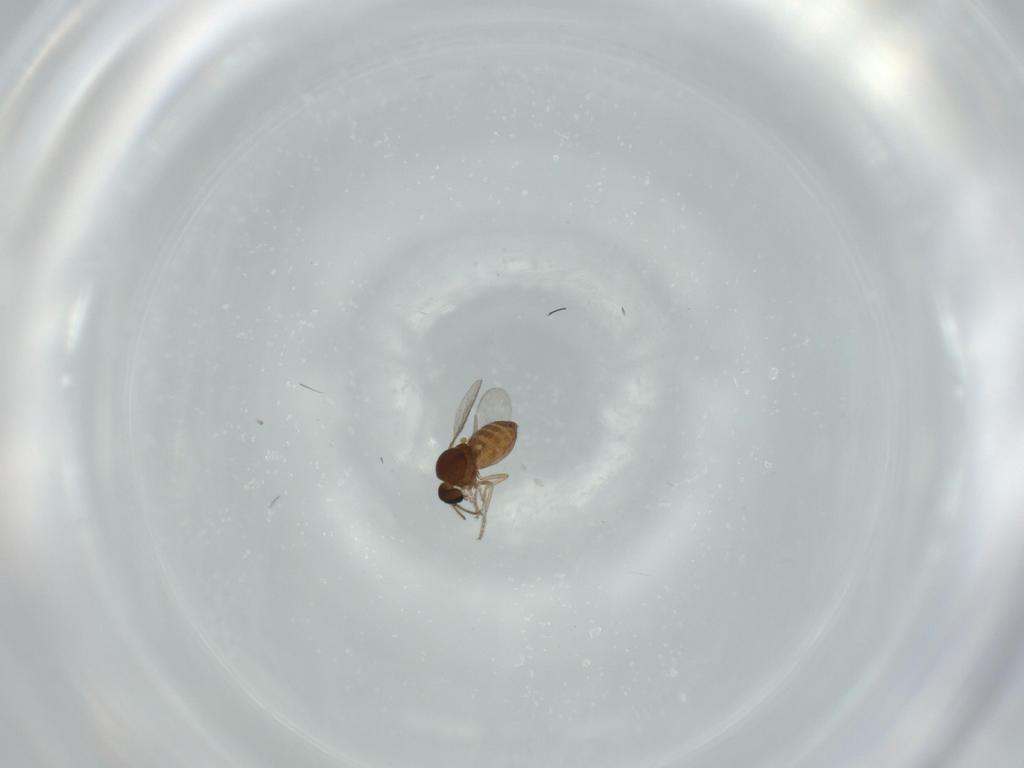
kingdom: Animalia
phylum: Arthropoda
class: Insecta
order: Diptera
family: Ceratopogonidae
